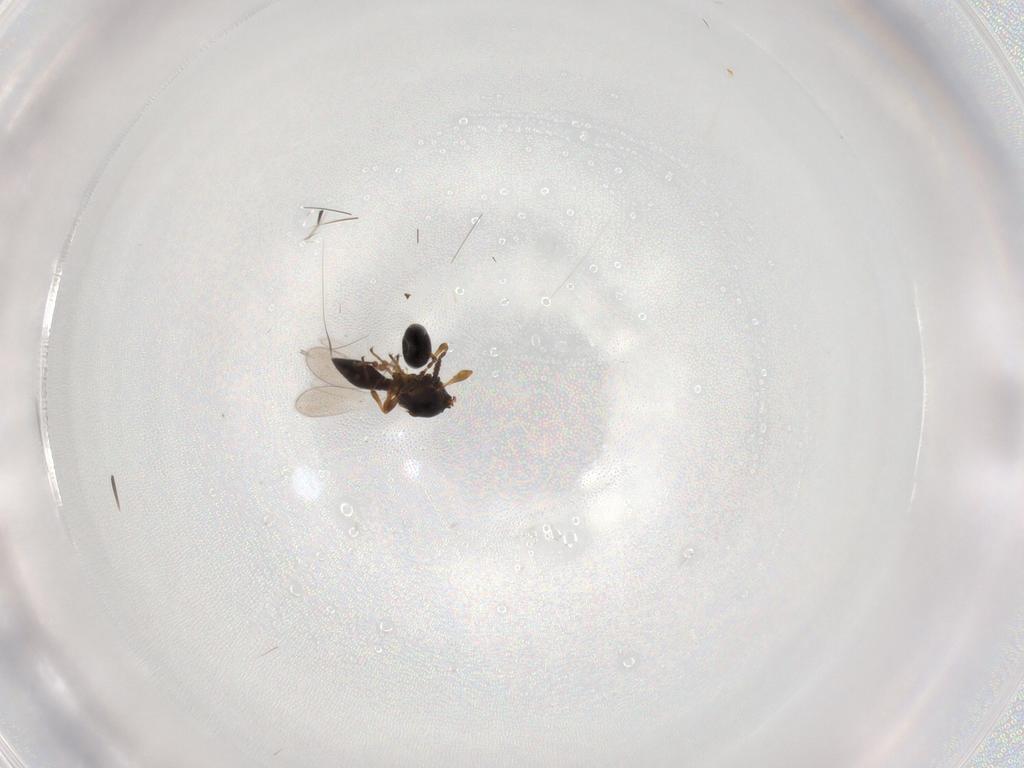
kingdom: Animalia
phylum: Arthropoda
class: Insecta
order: Hymenoptera
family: Platygastridae
